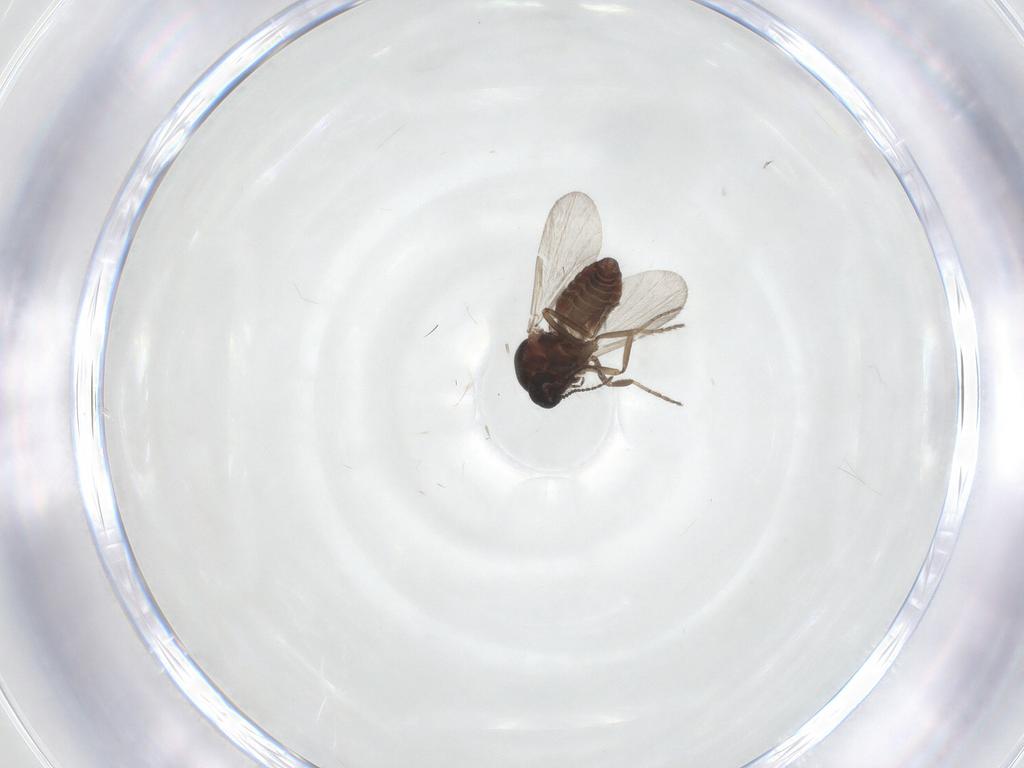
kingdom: Animalia
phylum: Arthropoda
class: Insecta
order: Diptera
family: Ceratopogonidae
